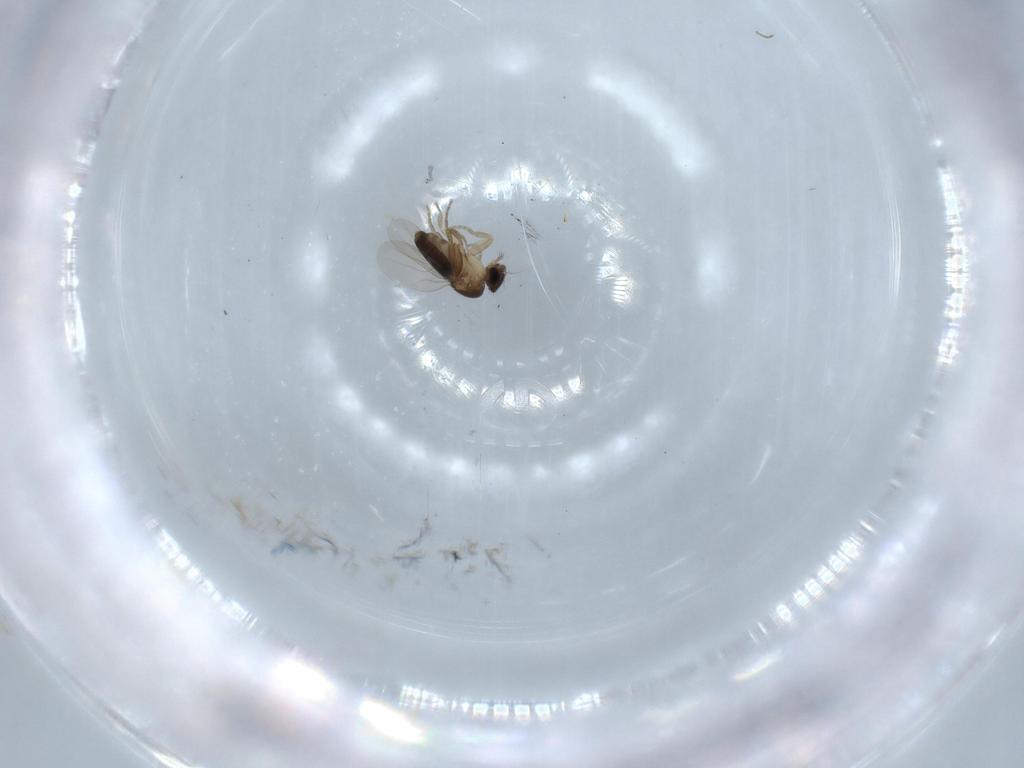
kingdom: Animalia
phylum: Arthropoda
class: Insecta
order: Diptera
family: Phoridae
